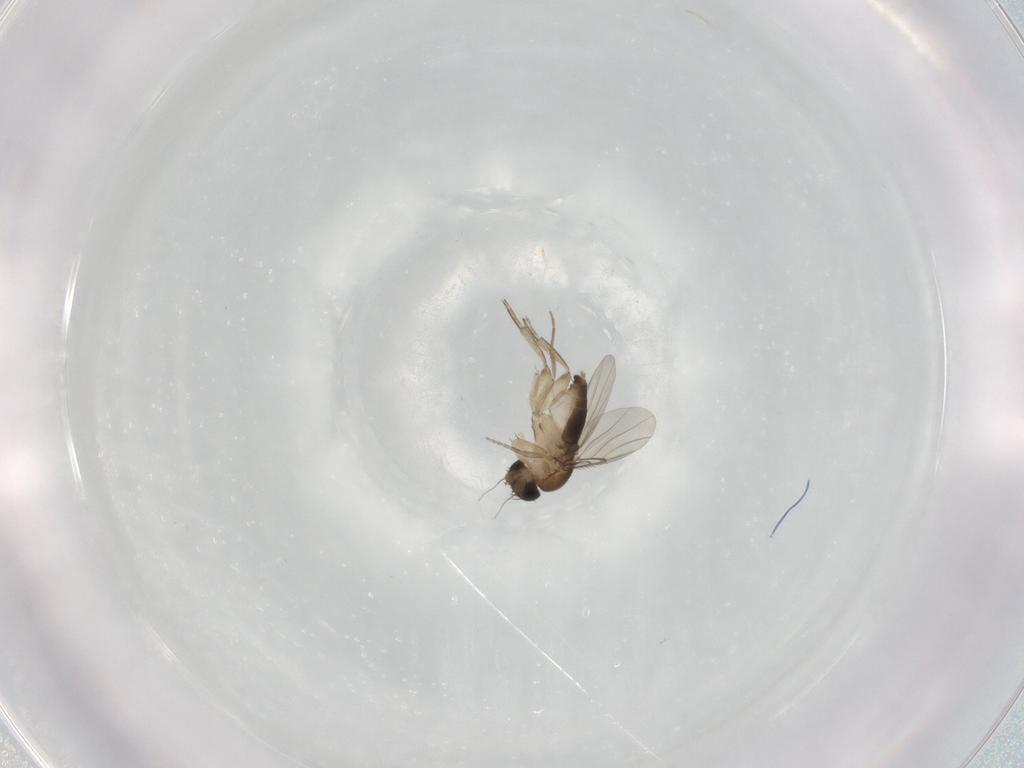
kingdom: Animalia
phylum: Arthropoda
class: Insecta
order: Diptera
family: Phoridae
